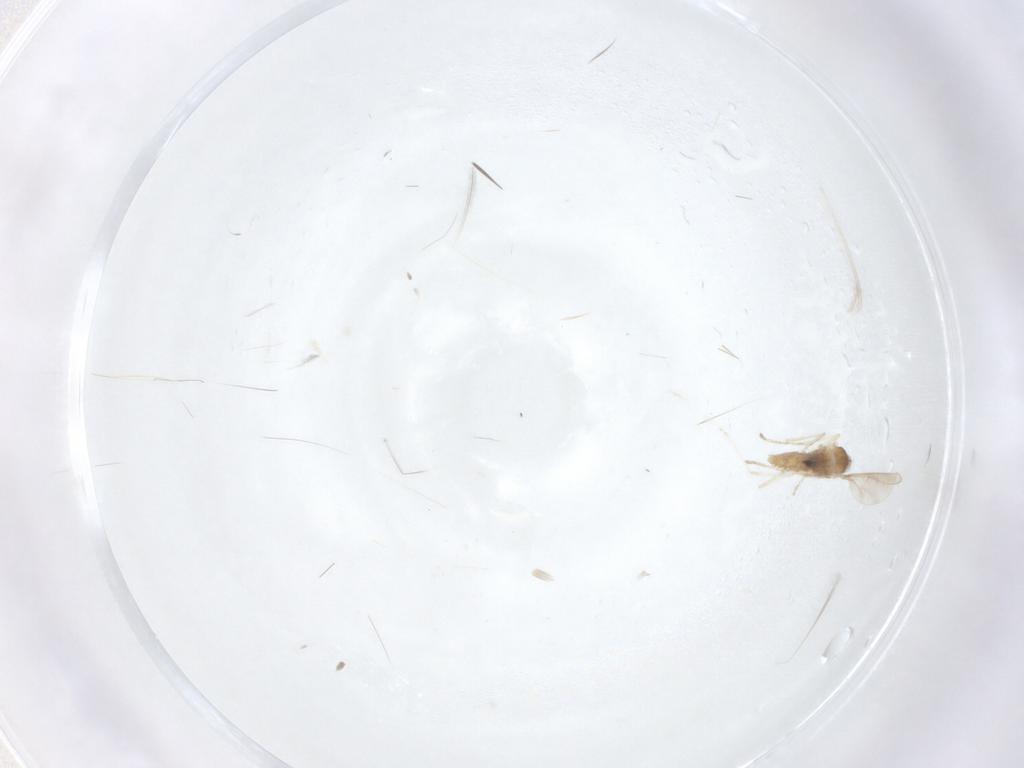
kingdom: Animalia
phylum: Arthropoda
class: Insecta
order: Diptera
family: Cecidomyiidae
